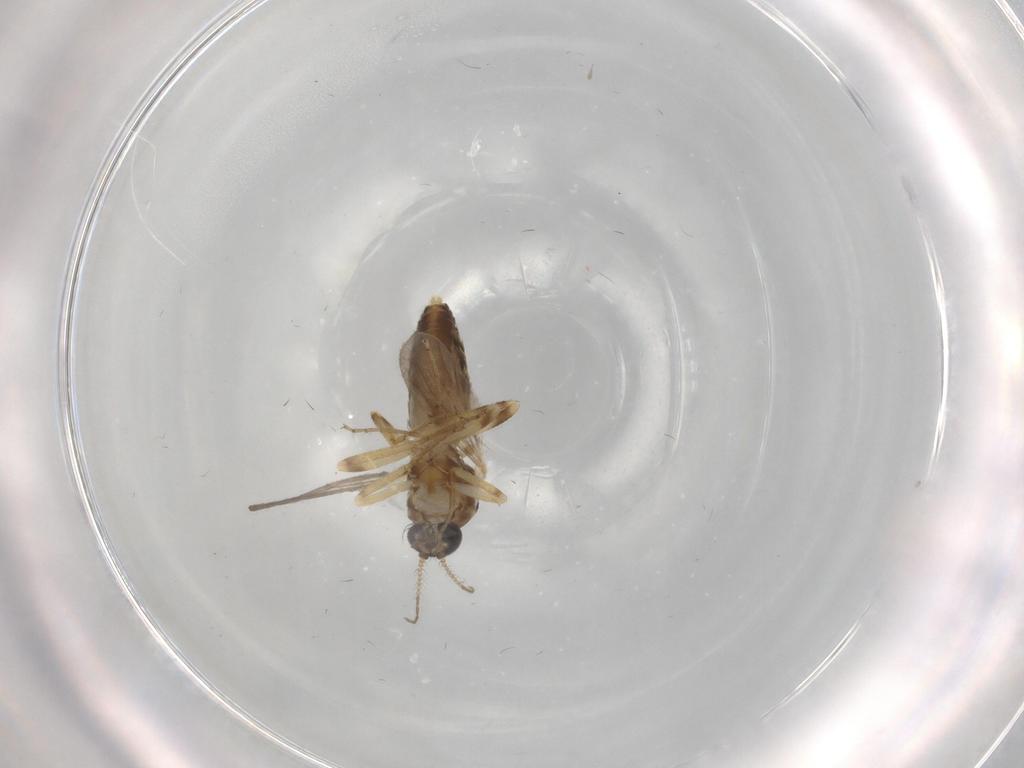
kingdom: Animalia
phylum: Arthropoda
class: Insecta
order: Diptera
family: Ceratopogonidae
